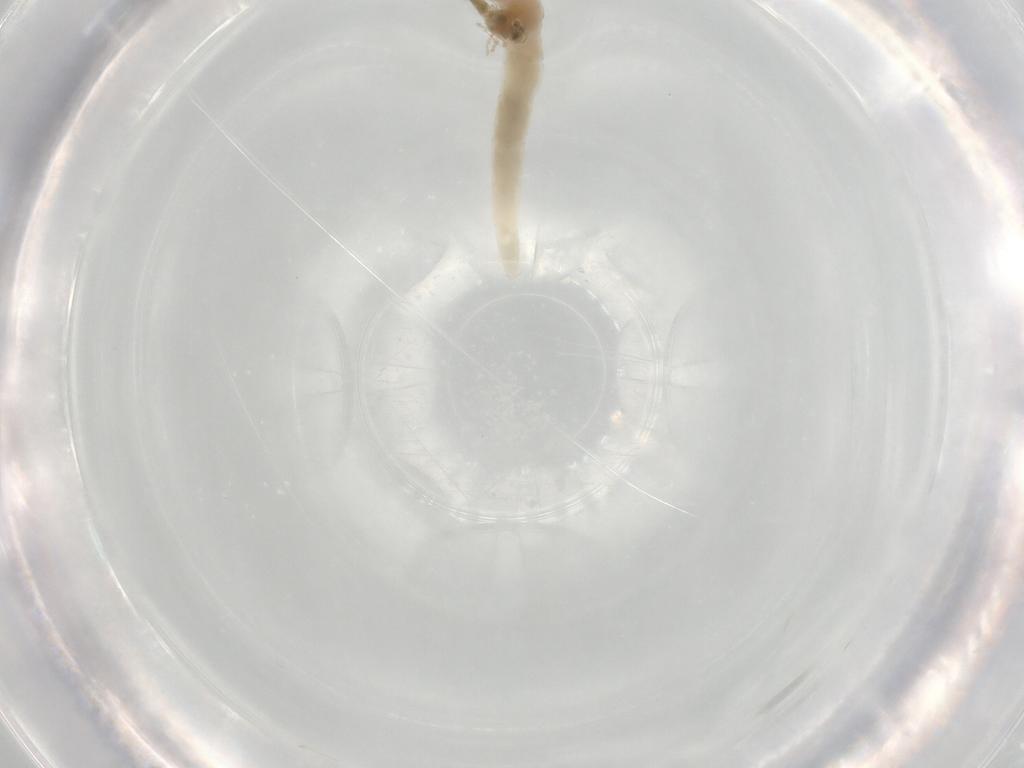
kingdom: Animalia
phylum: Arthropoda
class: Insecta
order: Diptera
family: Ceratopogonidae
